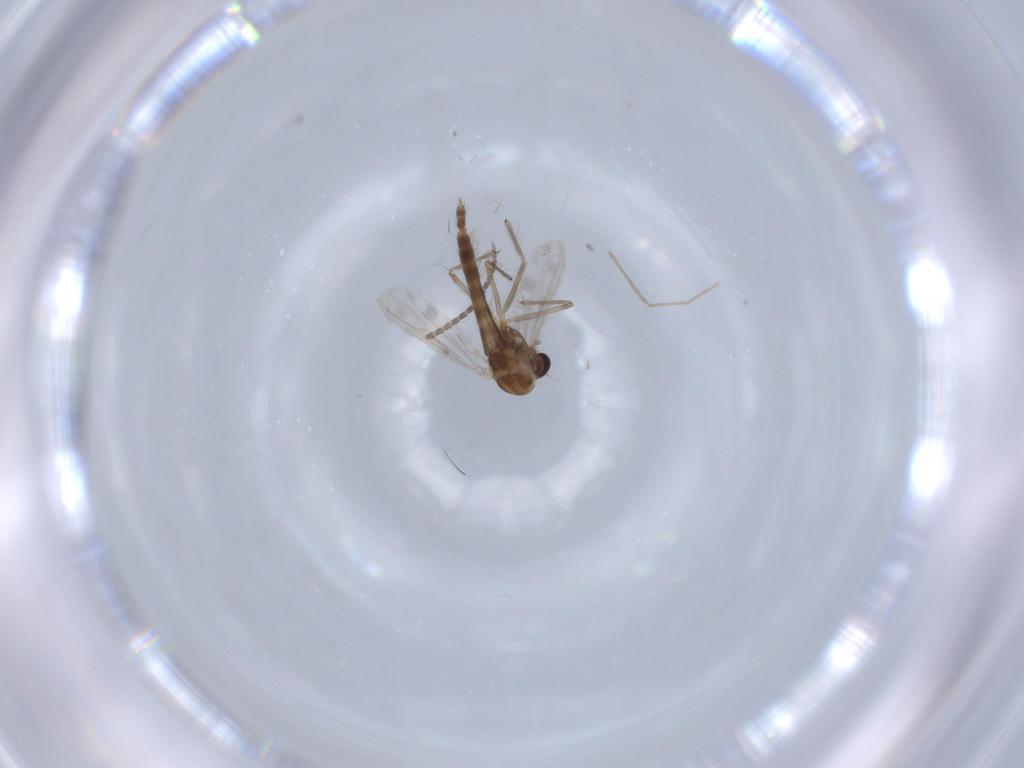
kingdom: Animalia
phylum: Arthropoda
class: Insecta
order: Diptera
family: Chironomidae
